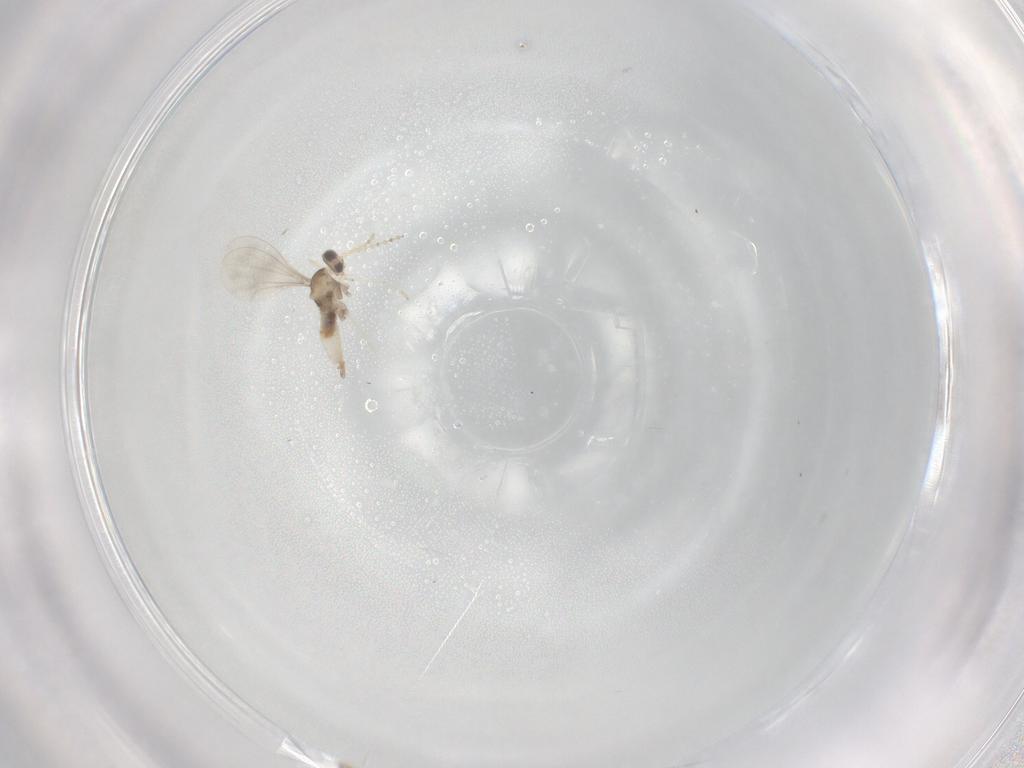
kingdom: Animalia
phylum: Arthropoda
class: Insecta
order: Diptera
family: Cecidomyiidae
